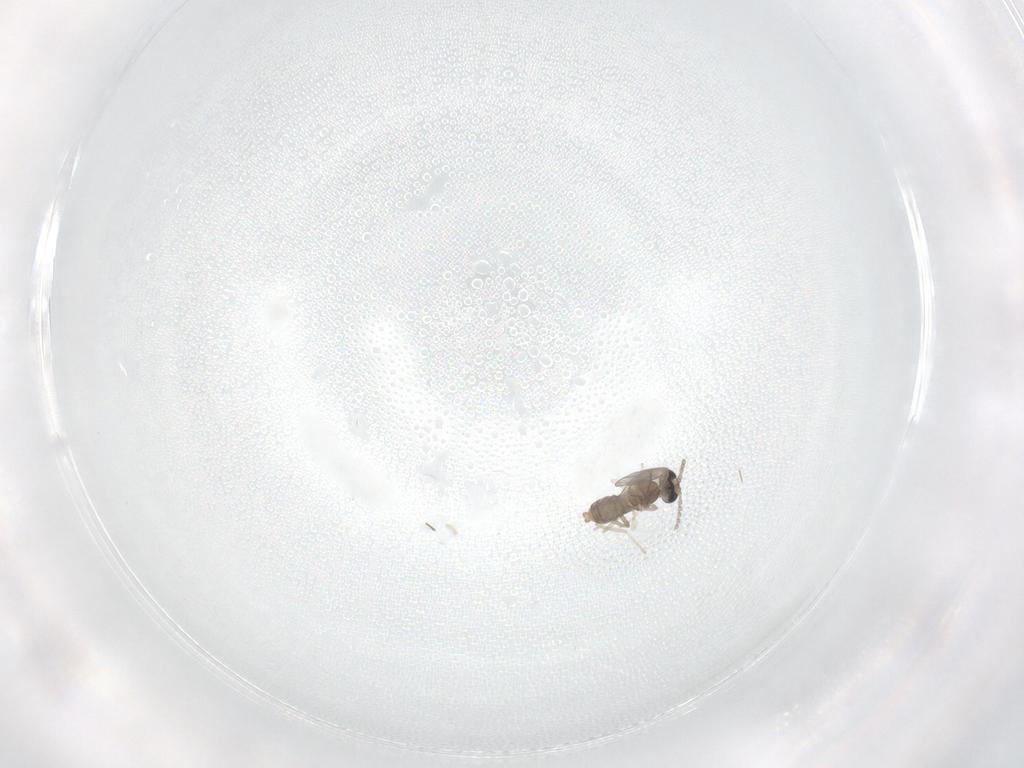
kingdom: Animalia
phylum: Arthropoda
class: Insecta
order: Diptera
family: Cecidomyiidae
